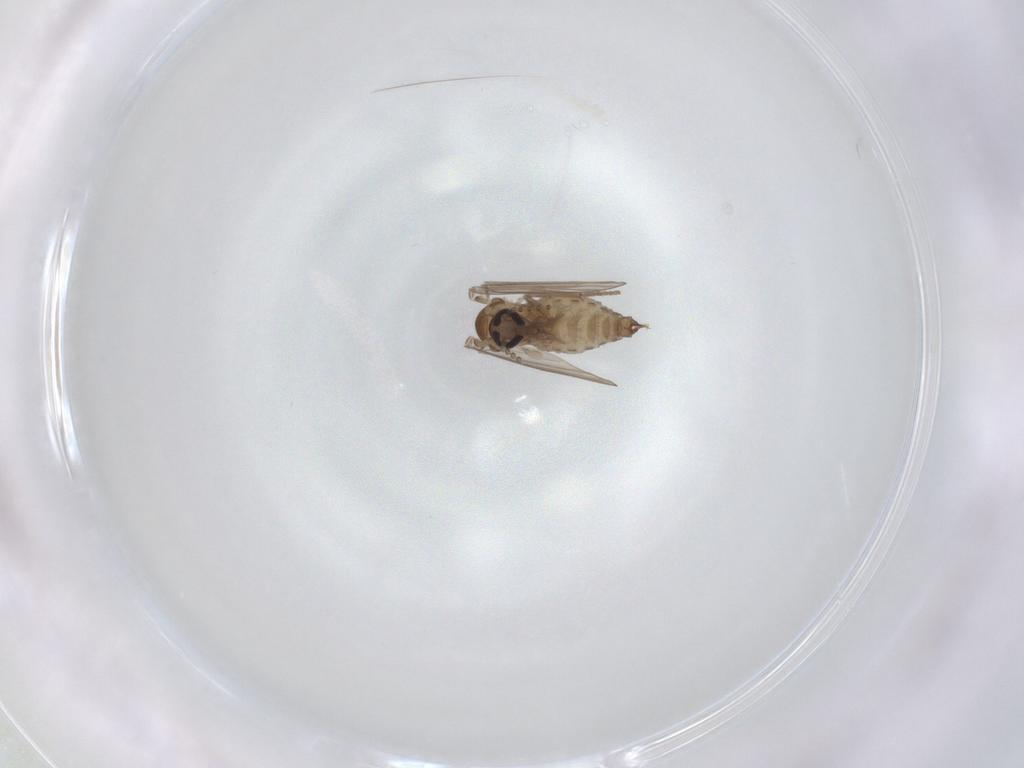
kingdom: Animalia
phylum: Arthropoda
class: Insecta
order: Diptera
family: Psychodidae
